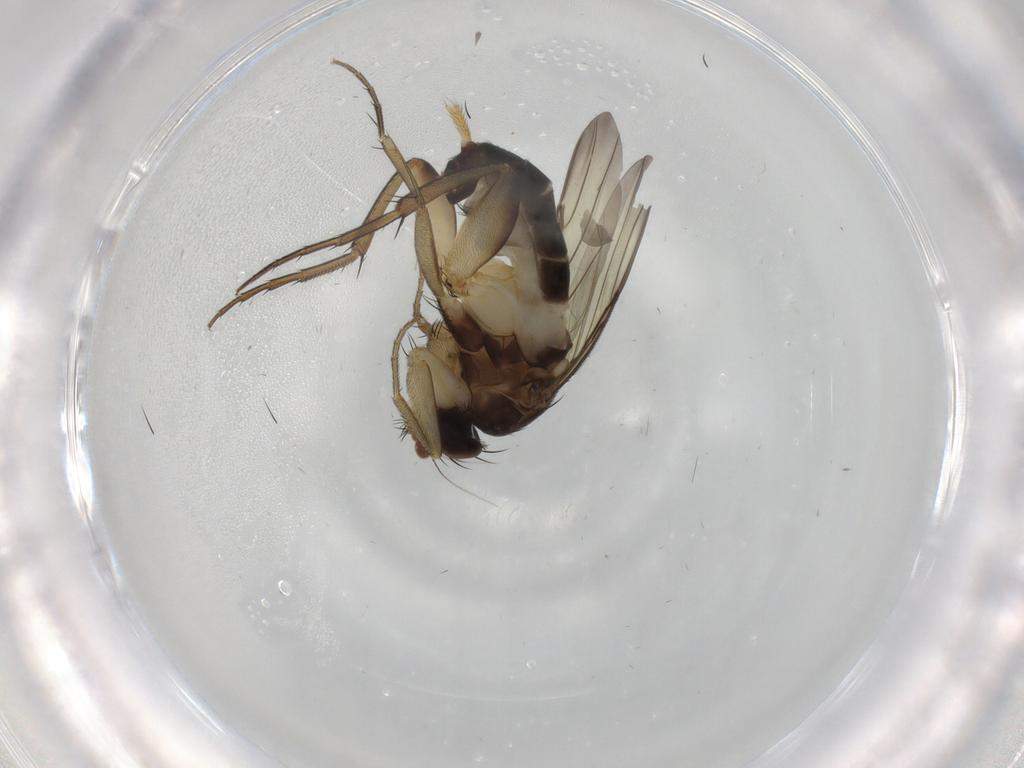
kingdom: Animalia
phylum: Arthropoda
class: Insecta
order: Diptera
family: Phoridae
